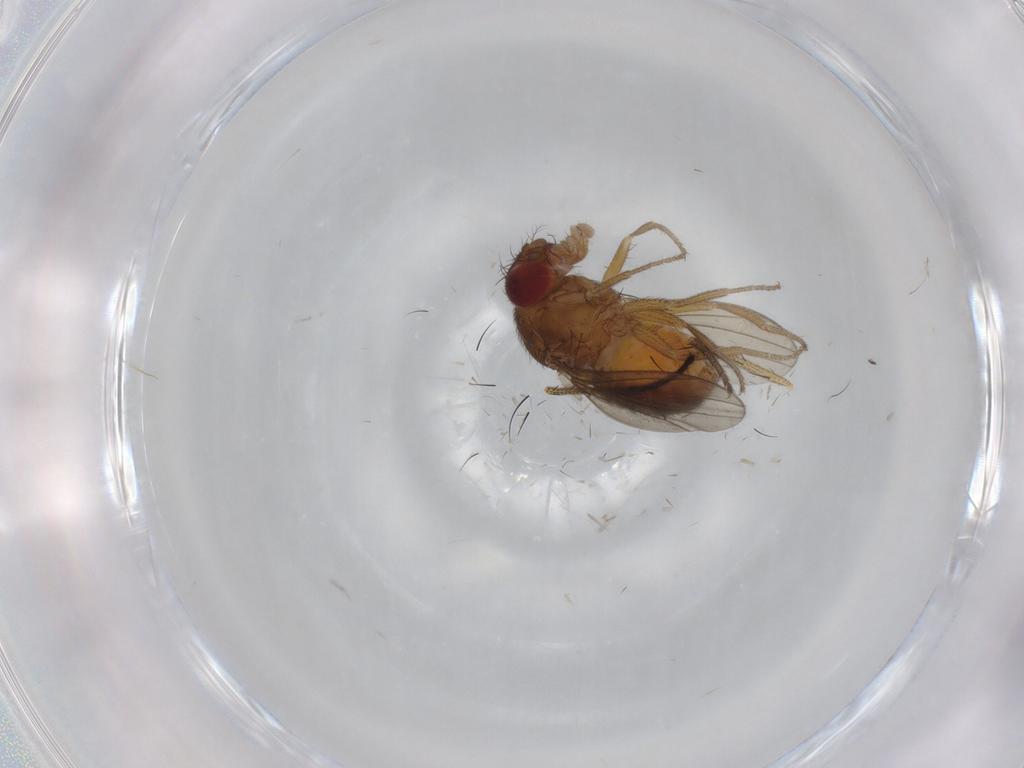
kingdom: Animalia
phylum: Arthropoda
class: Insecta
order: Diptera
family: Drosophilidae
